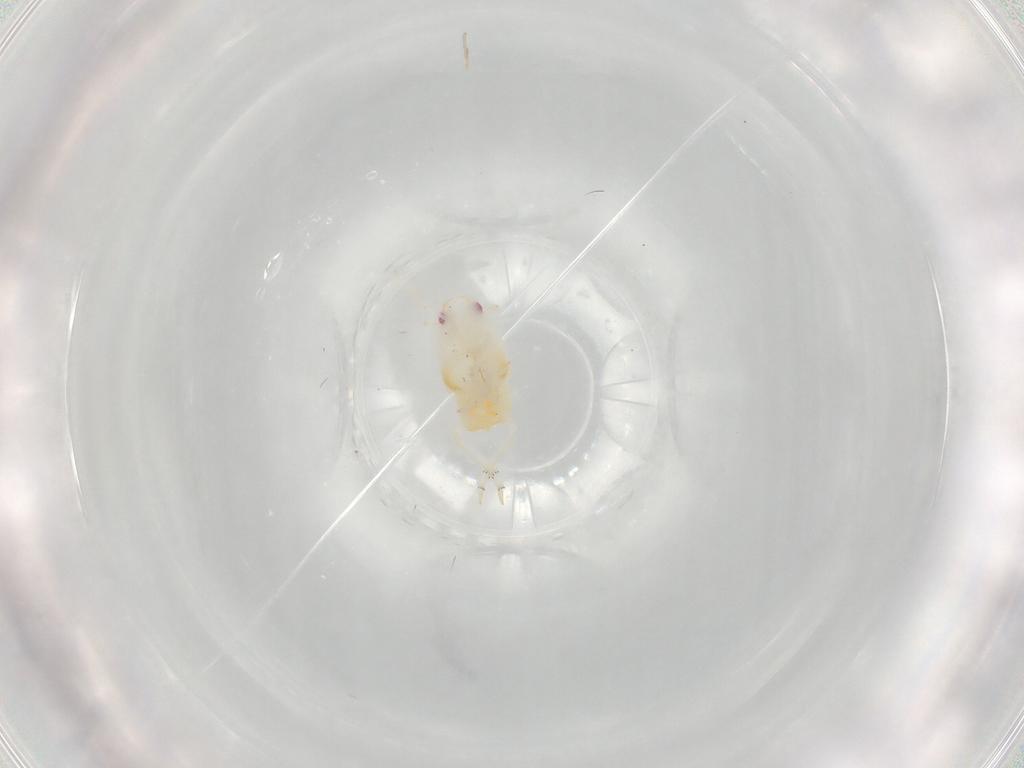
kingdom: Animalia
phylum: Arthropoda
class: Insecta
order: Hemiptera
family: Flatidae
